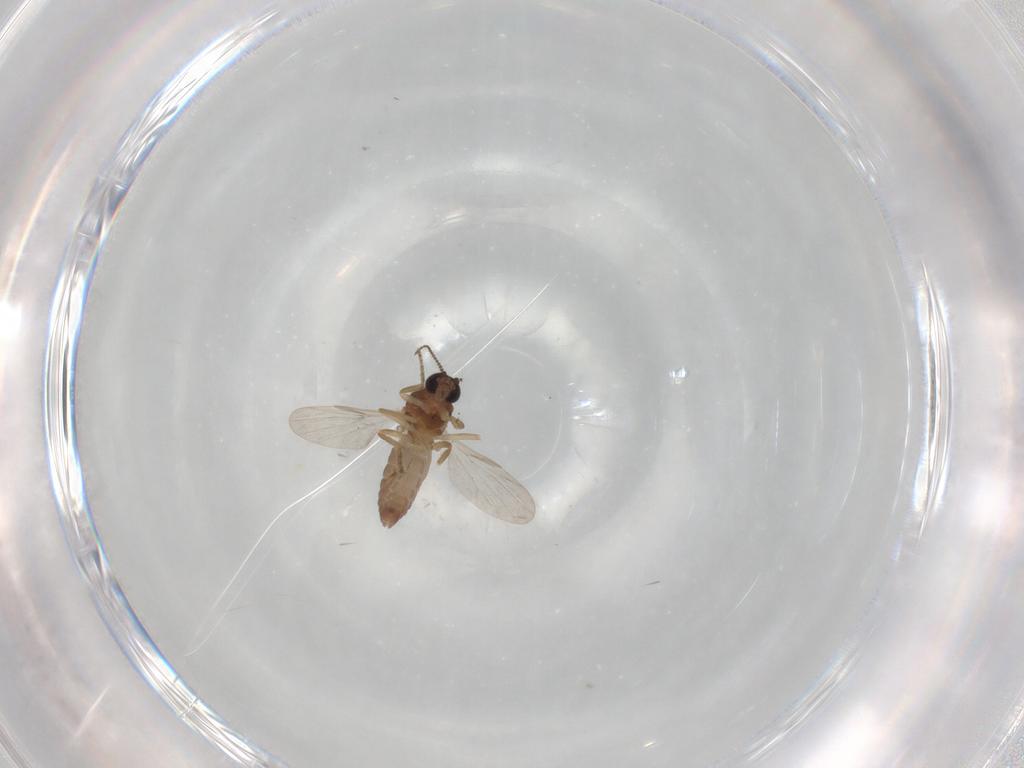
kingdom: Animalia
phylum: Arthropoda
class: Insecta
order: Diptera
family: Ceratopogonidae
